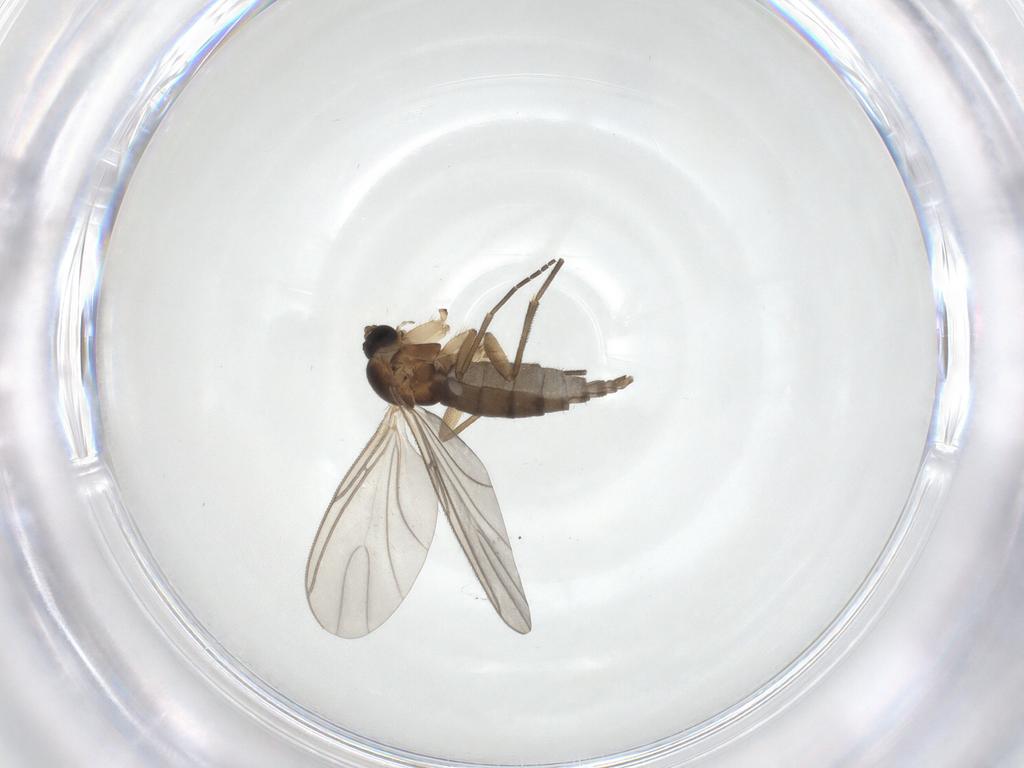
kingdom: Animalia
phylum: Arthropoda
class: Insecta
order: Diptera
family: Sciaridae
